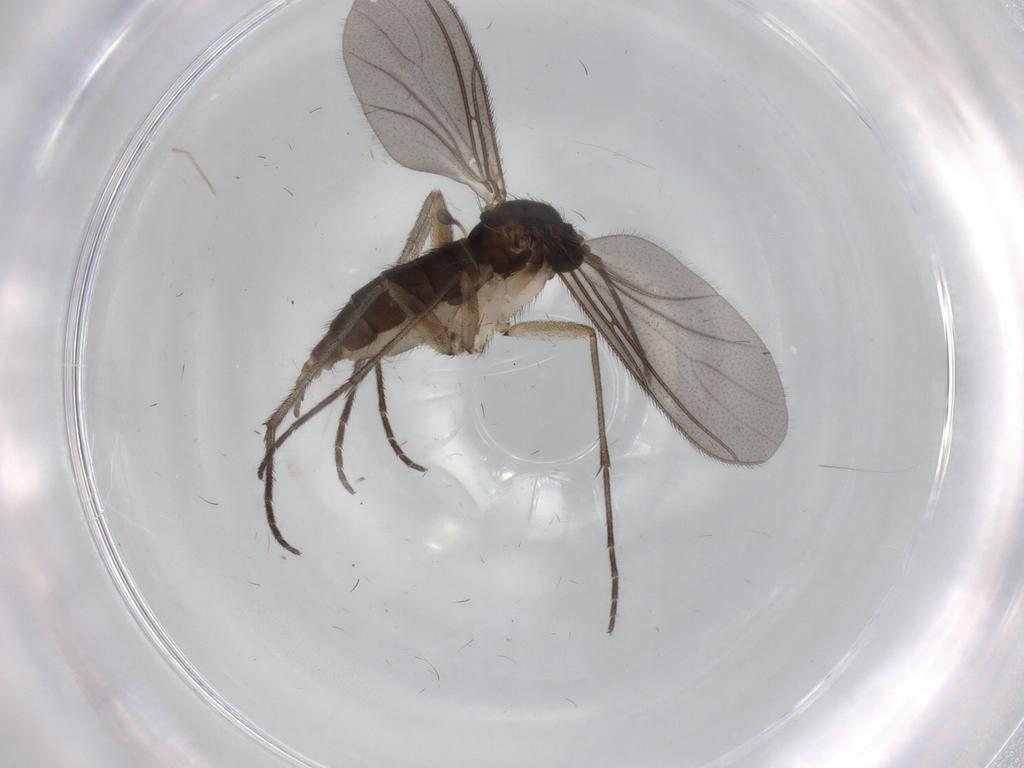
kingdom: Animalia
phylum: Arthropoda
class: Insecta
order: Diptera
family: Sciaridae
